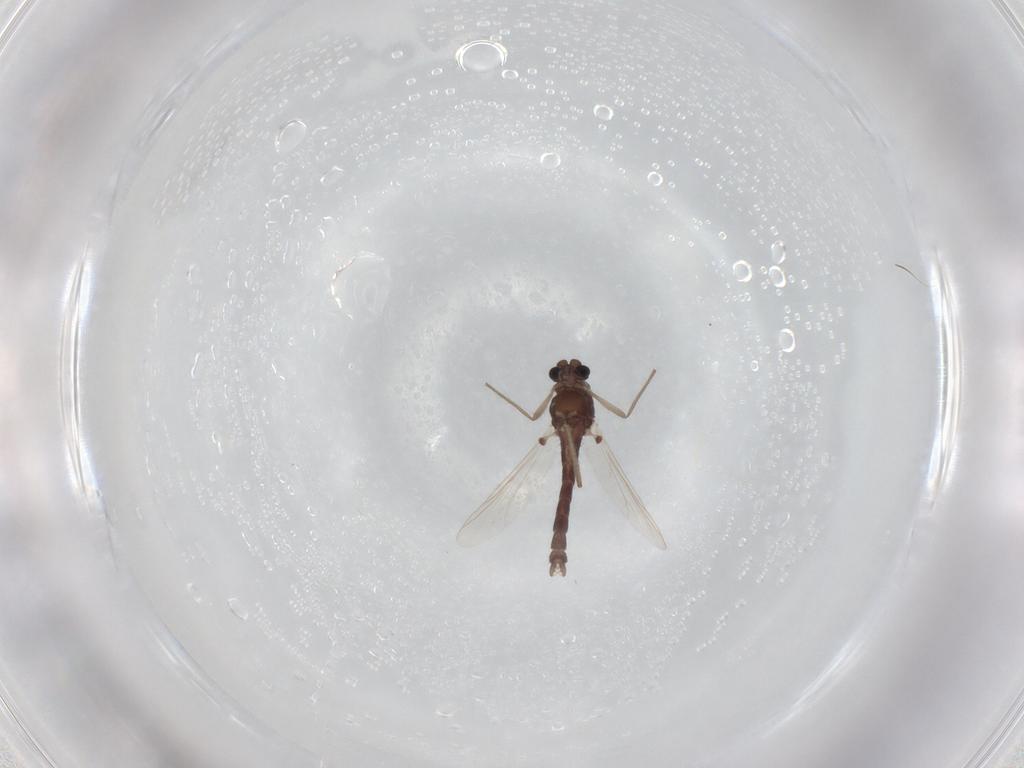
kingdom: Animalia
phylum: Arthropoda
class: Insecta
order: Diptera
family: Chironomidae
